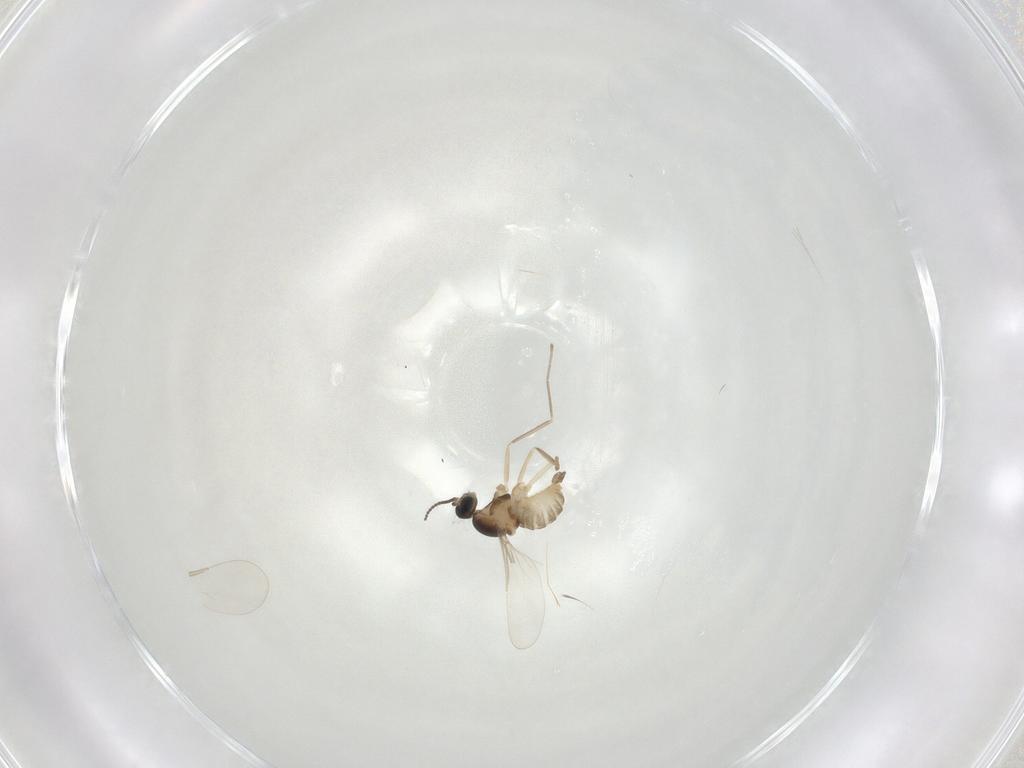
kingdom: Animalia
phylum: Arthropoda
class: Insecta
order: Diptera
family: Cecidomyiidae
